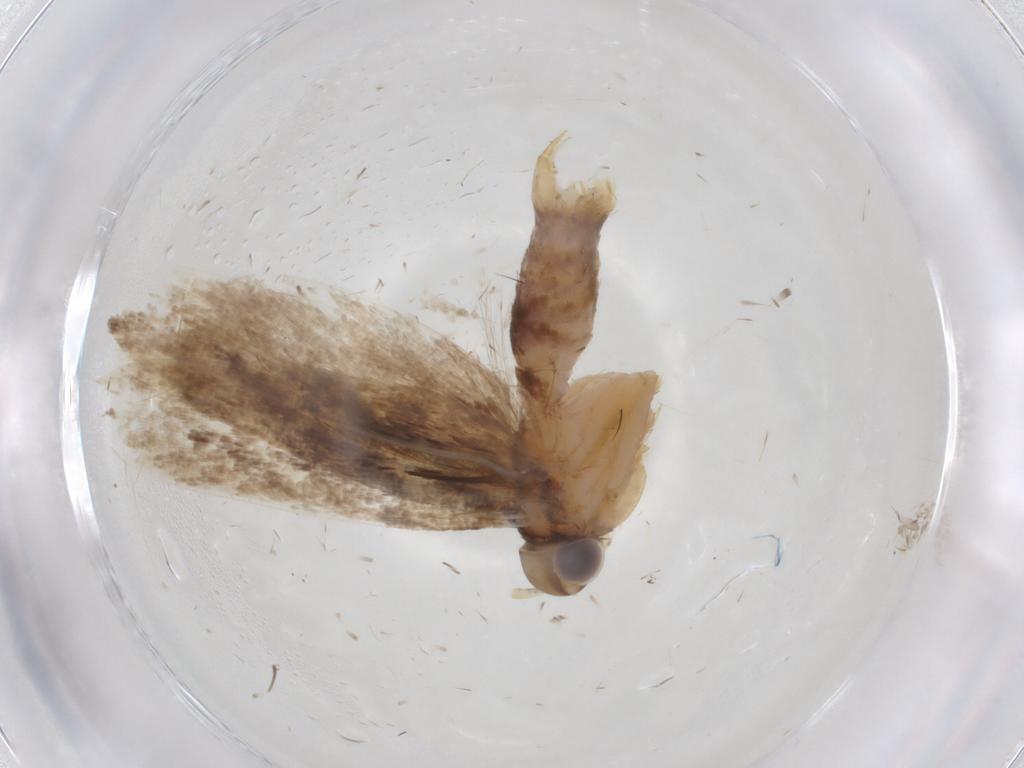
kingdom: Animalia
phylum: Arthropoda
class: Insecta
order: Lepidoptera
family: Gelechiidae
